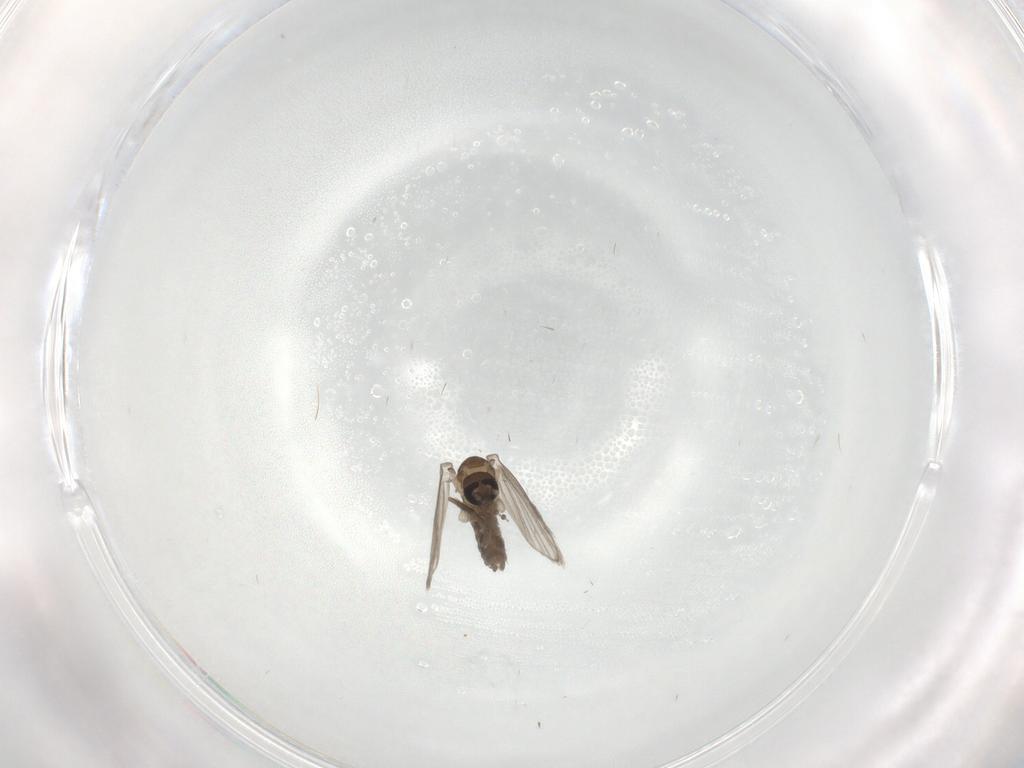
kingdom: Animalia
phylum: Arthropoda
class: Insecta
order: Diptera
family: Psychodidae
